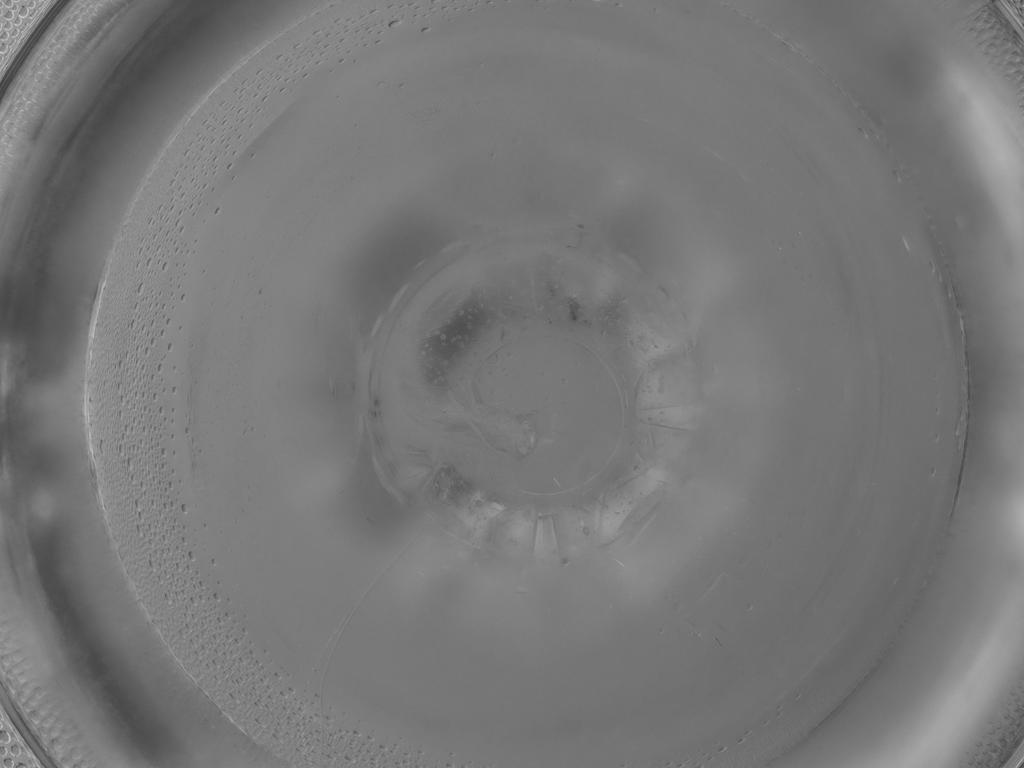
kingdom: Animalia
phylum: Arthropoda
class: Insecta
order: Diptera
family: Phoridae
